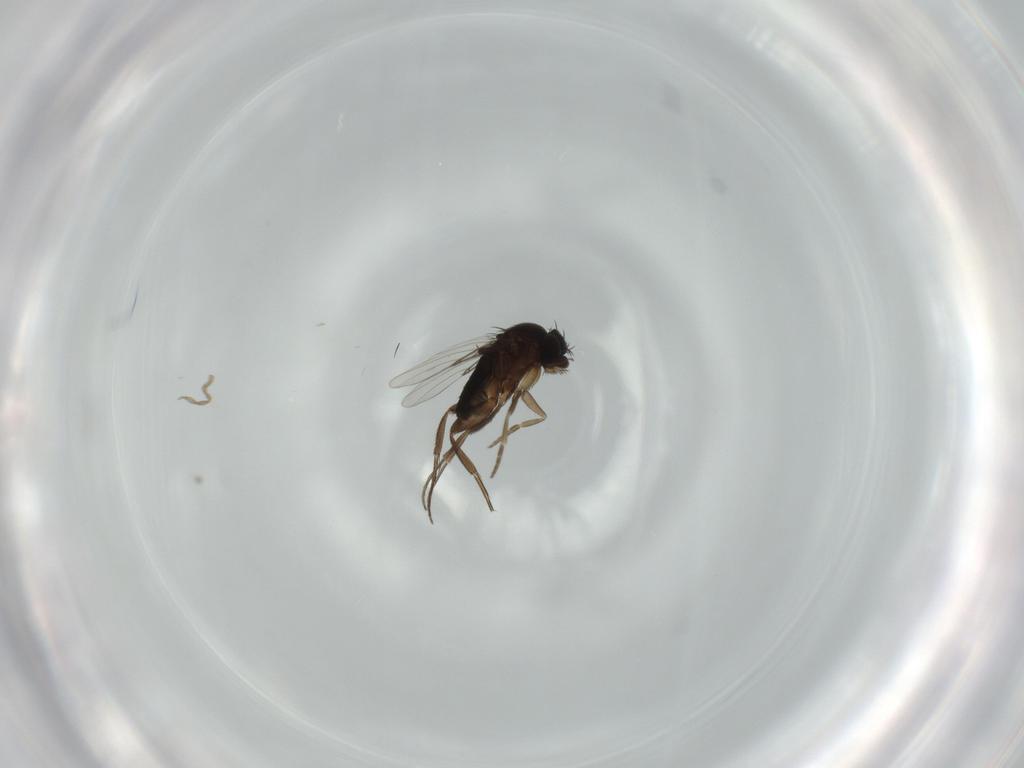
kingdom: Animalia
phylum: Arthropoda
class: Insecta
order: Diptera
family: Phoridae
